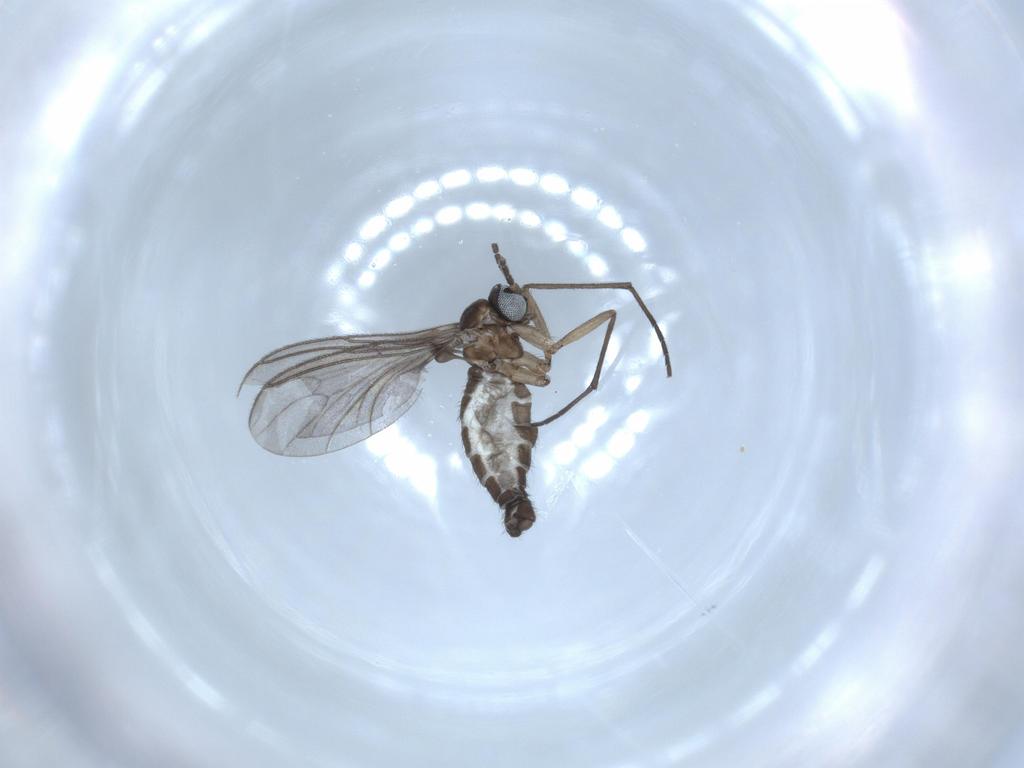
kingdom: Animalia
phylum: Arthropoda
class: Insecta
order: Diptera
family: Sciaridae
